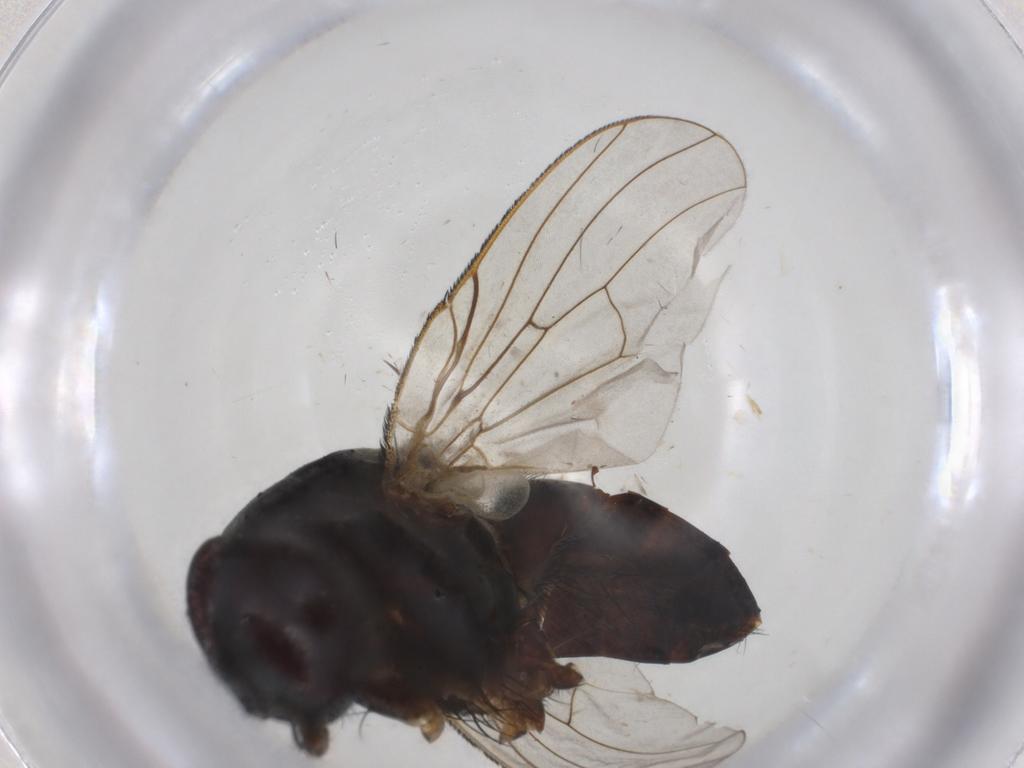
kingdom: Animalia
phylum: Arthropoda
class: Insecta
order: Diptera
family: Muscidae
